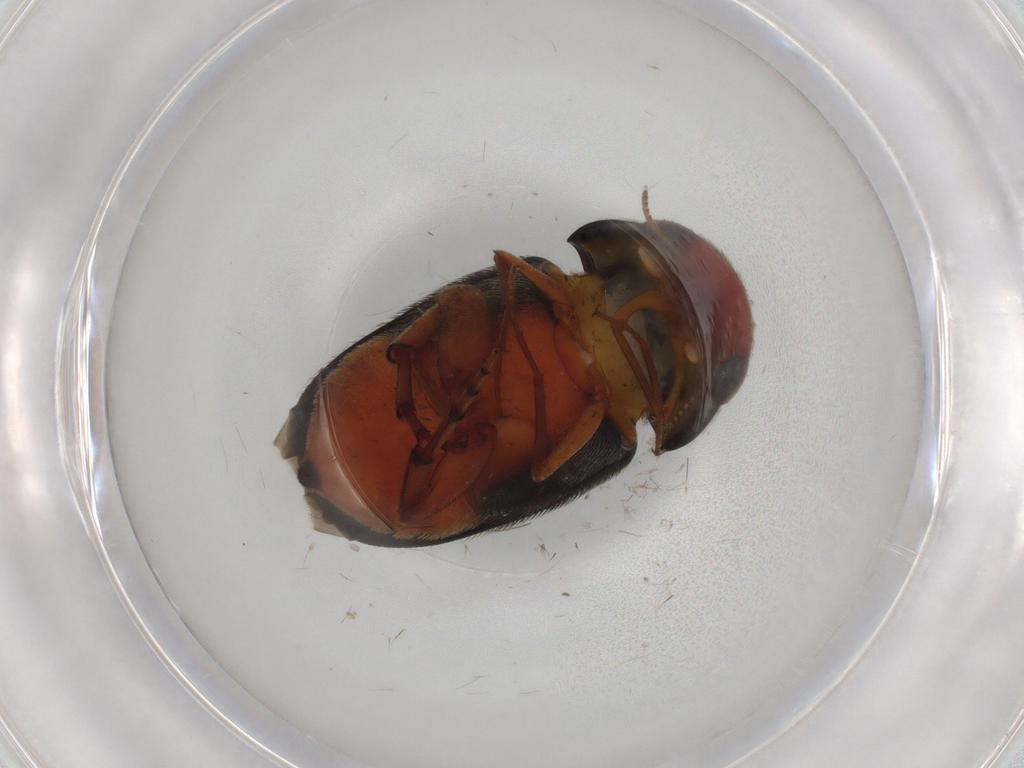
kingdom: Animalia
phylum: Arthropoda
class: Insecta
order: Coleoptera
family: Mordellidae
